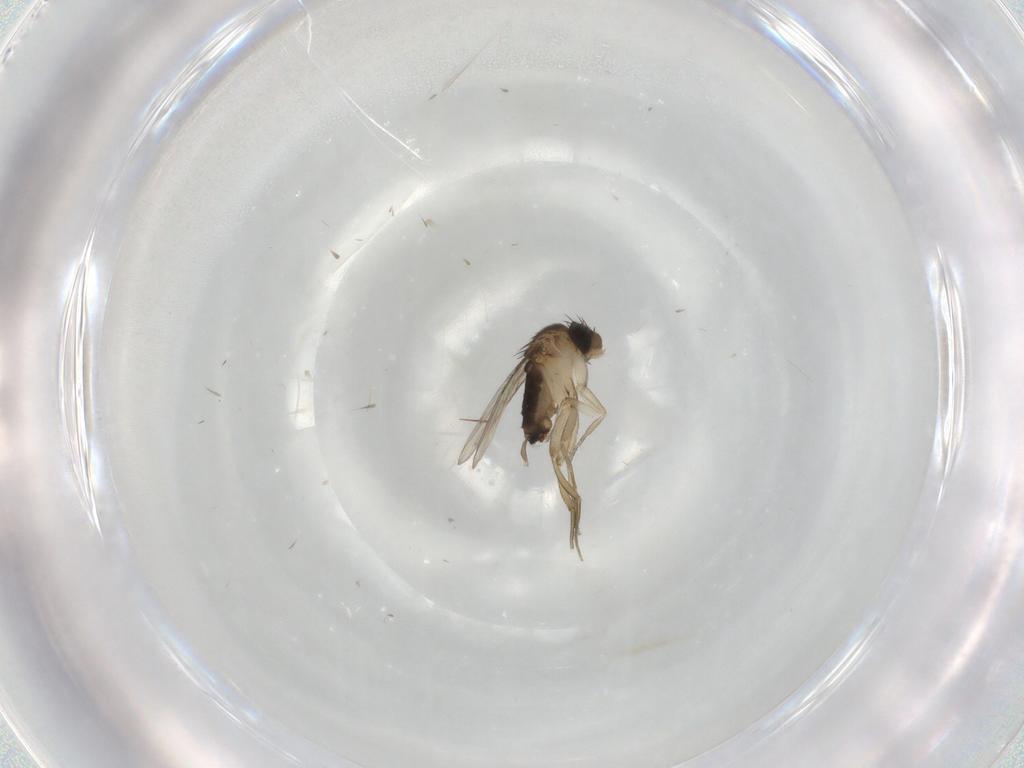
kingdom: Animalia
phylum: Arthropoda
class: Insecta
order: Diptera
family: Phoridae
